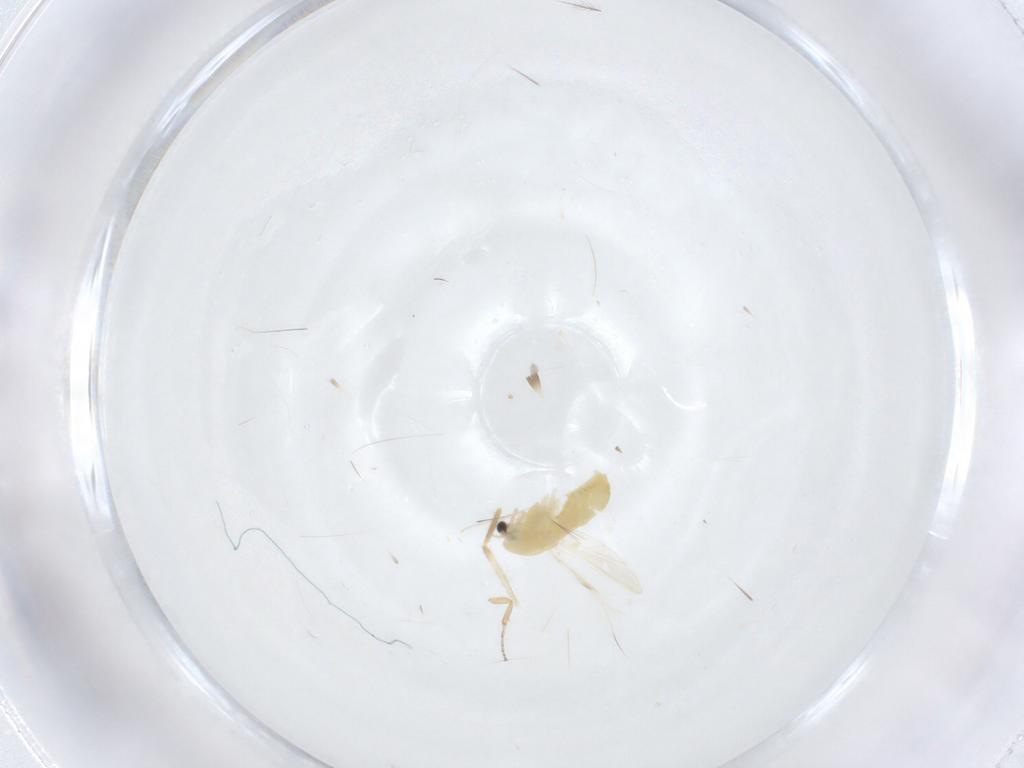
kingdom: Animalia
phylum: Arthropoda
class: Insecta
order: Diptera
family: Chironomidae
